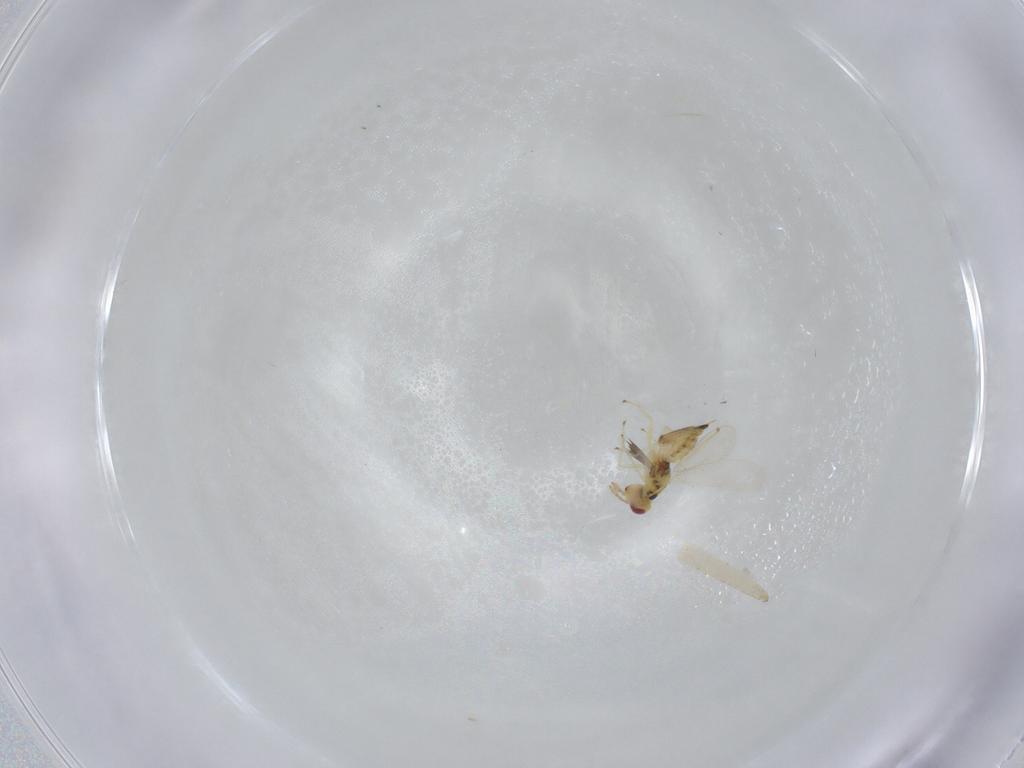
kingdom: Animalia
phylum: Arthropoda
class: Insecta
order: Hymenoptera
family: Eulophidae
